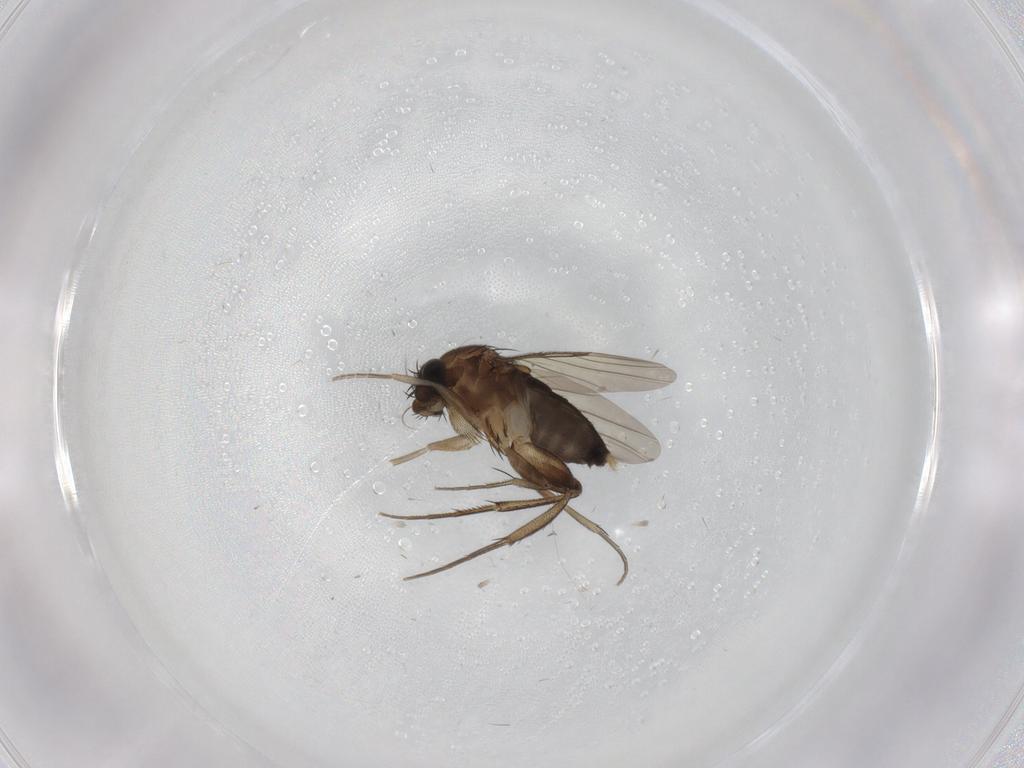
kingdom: Animalia
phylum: Arthropoda
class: Insecta
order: Diptera
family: Phoridae
